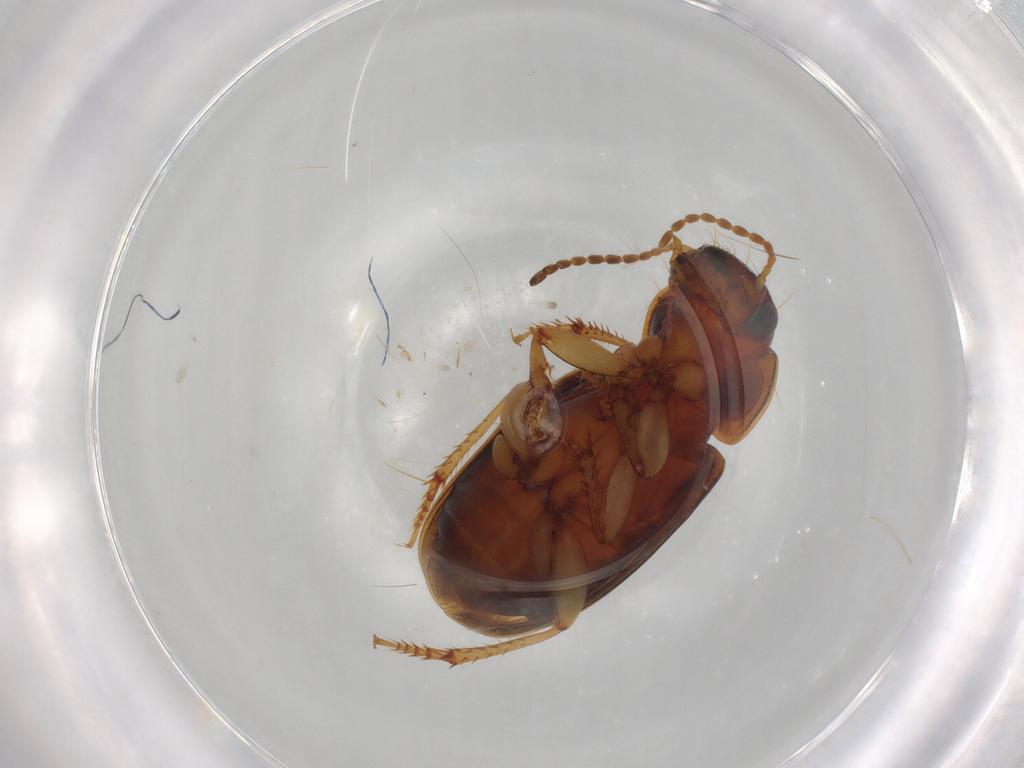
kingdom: Animalia
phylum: Arthropoda
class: Insecta
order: Coleoptera
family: Carabidae
